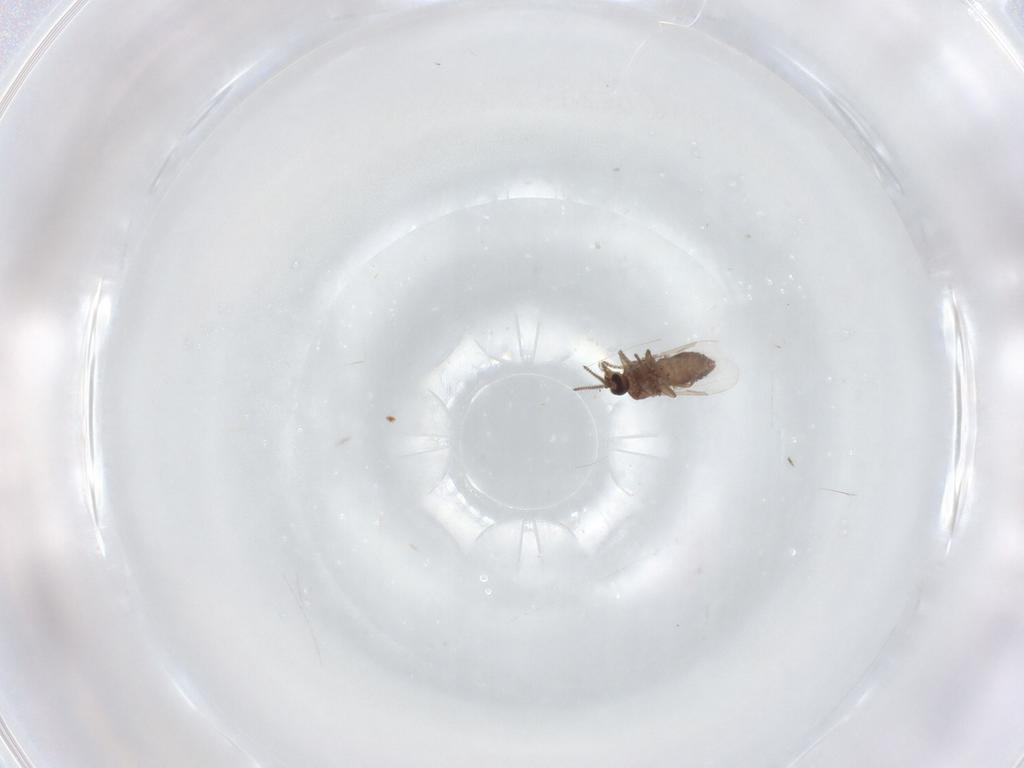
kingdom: Animalia
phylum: Arthropoda
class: Insecta
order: Diptera
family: Ceratopogonidae
